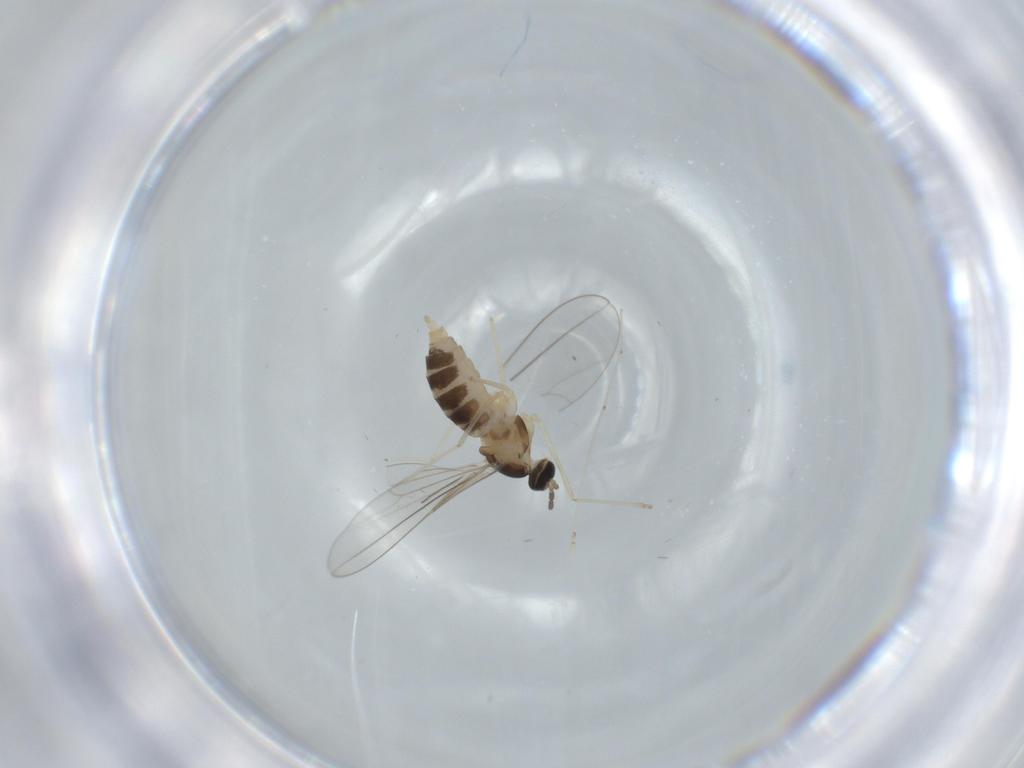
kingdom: Animalia
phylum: Arthropoda
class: Insecta
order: Diptera
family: Cecidomyiidae
